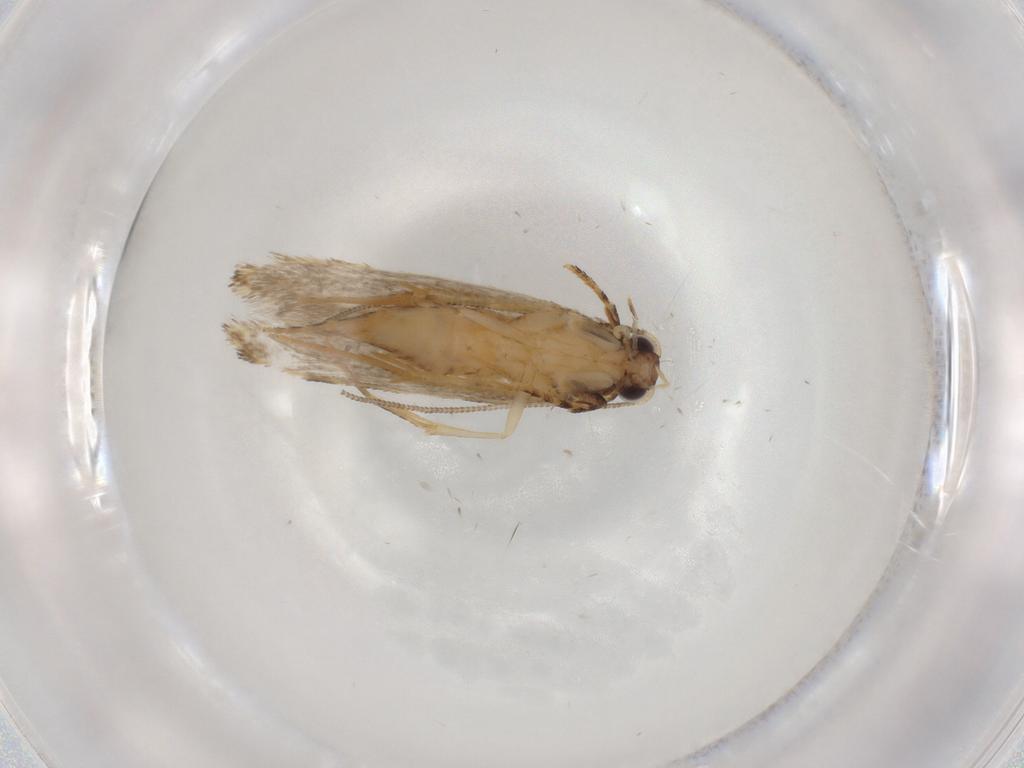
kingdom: Animalia
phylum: Arthropoda
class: Insecta
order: Lepidoptera
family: Tineidae
